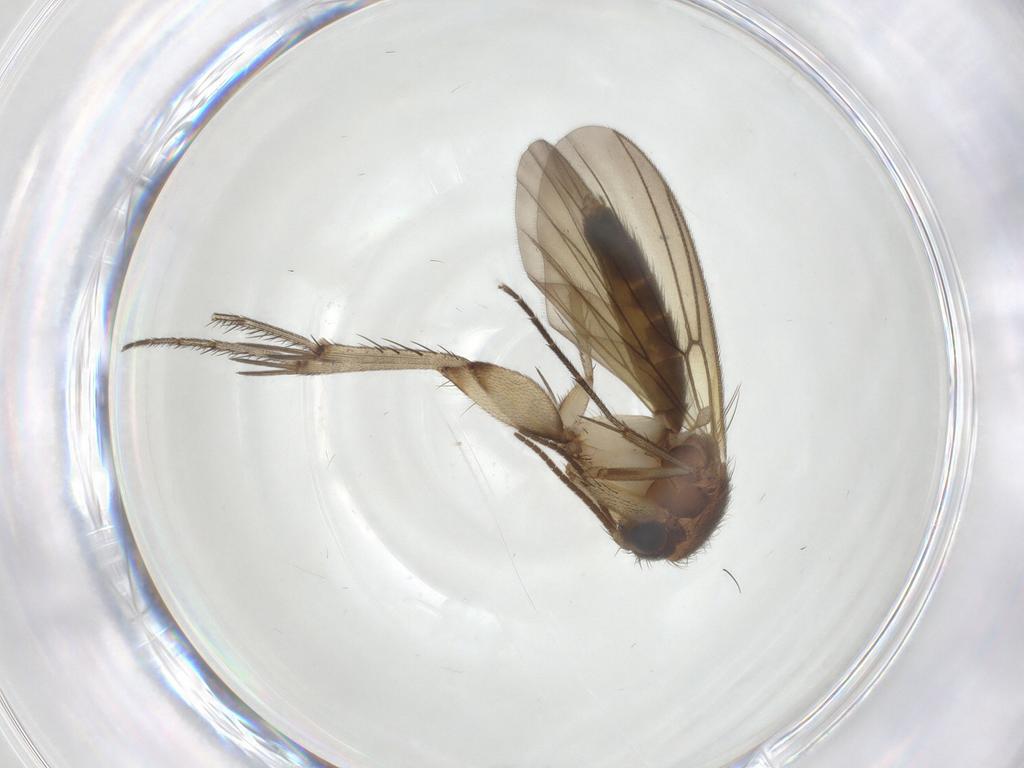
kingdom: Animalia
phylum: Arthropoda
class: Insecta
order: Diptera
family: Mycetophilidae
